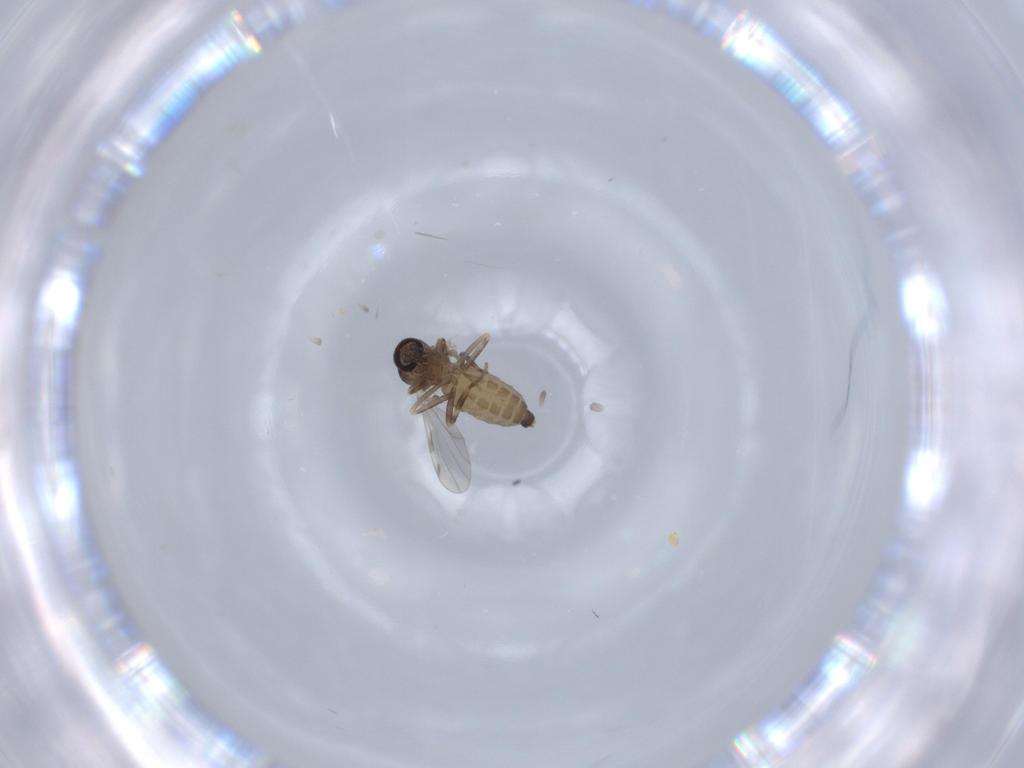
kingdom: Animalia
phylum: Arthropoda
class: Insecta
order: Diptera
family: Ceratopogonidae
